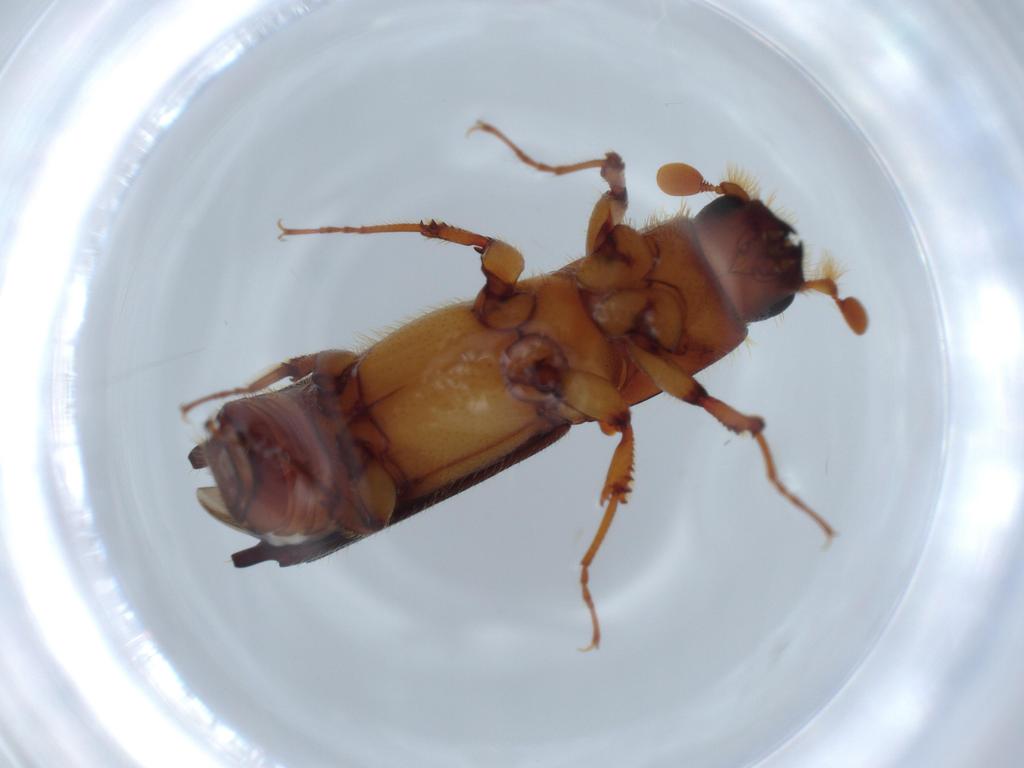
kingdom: Animalia
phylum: Arthropoda
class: Insecta
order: Coleoptera
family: Curculionidae
